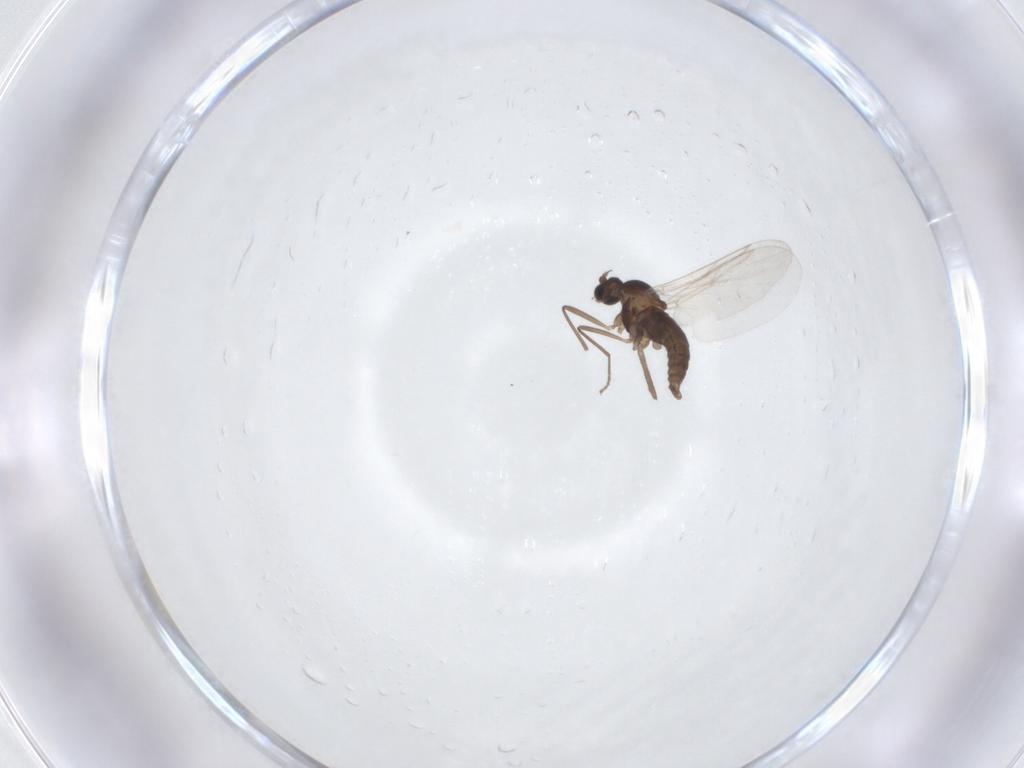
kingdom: Animalia
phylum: Arthropoda
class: Insecta
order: Diptera
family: Cecidomyiidae
